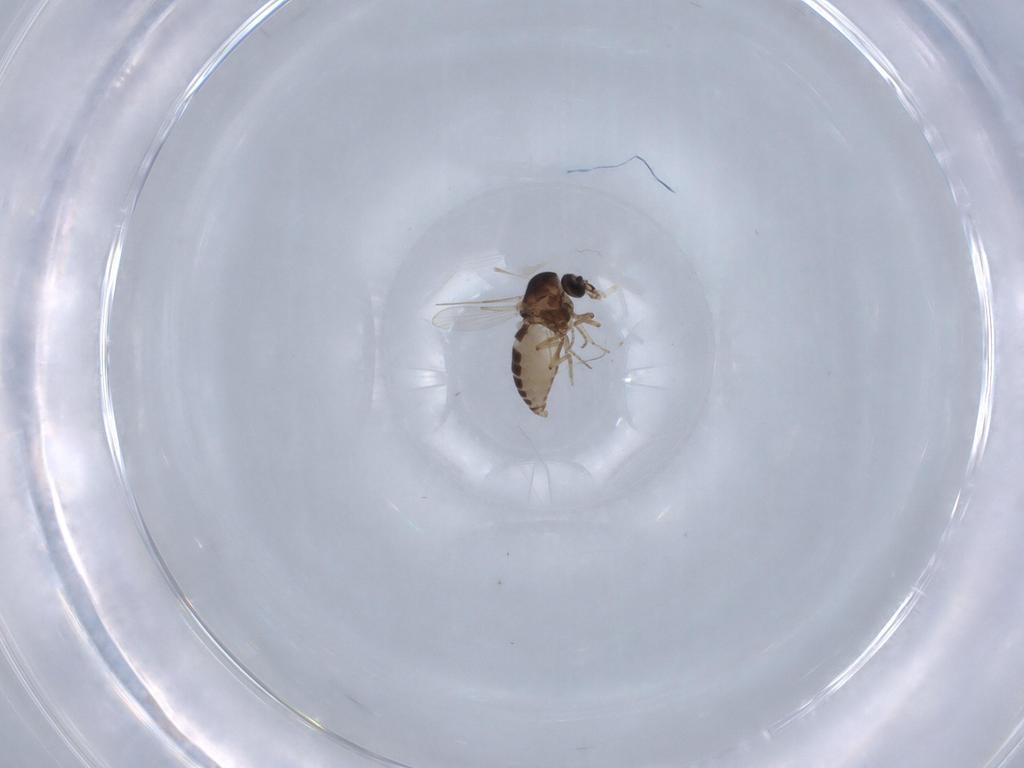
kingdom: Animalia
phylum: Arthropoda
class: Insecta
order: Diptera
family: Ceratopogonidae
